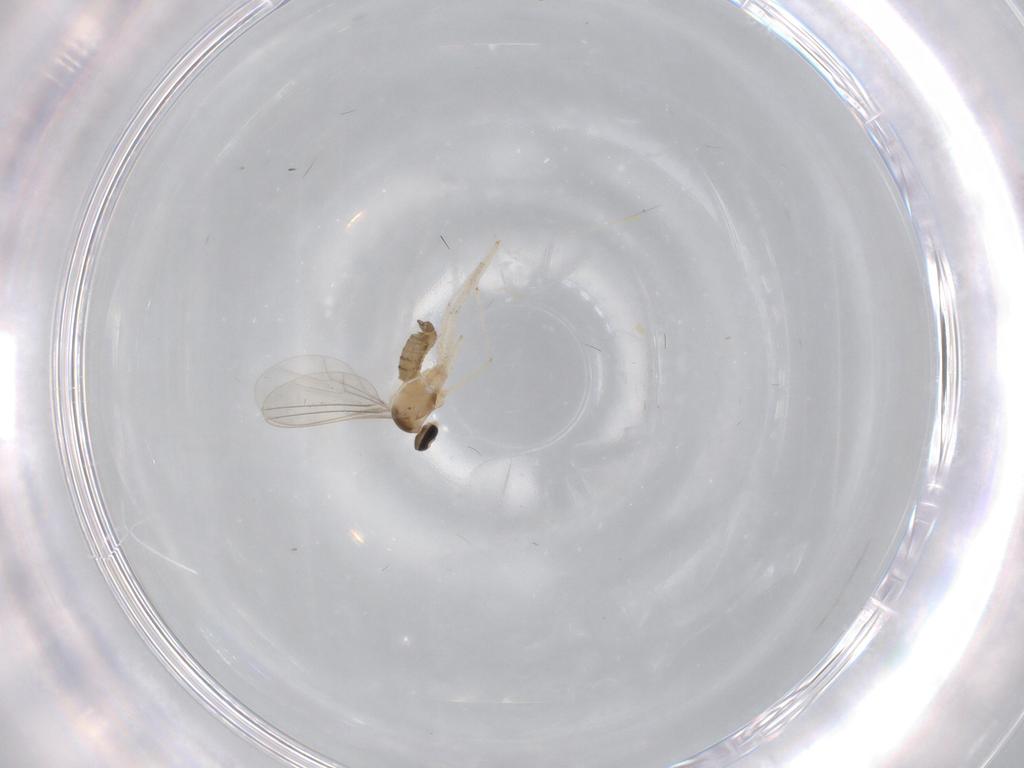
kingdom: Animalia
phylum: Arthropoda
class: Insecta
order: Diptera
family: Cecidomyiidae
